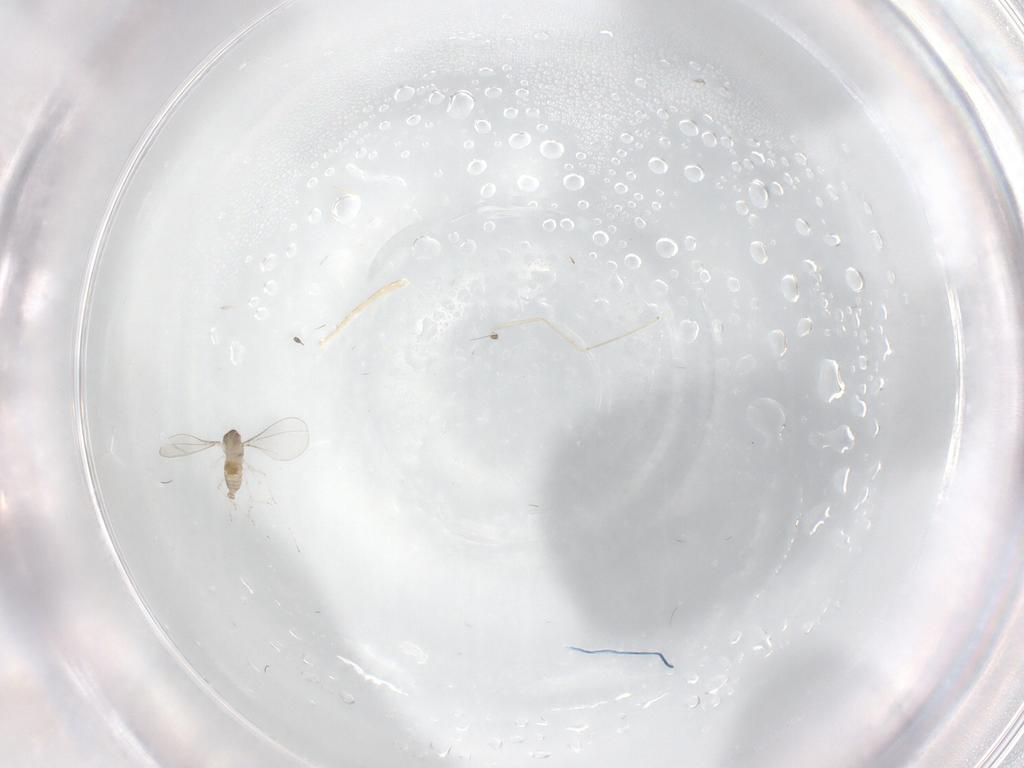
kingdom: Animalia
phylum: Arthropoda
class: Insecta
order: Diptera
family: Cecidomyiidae
